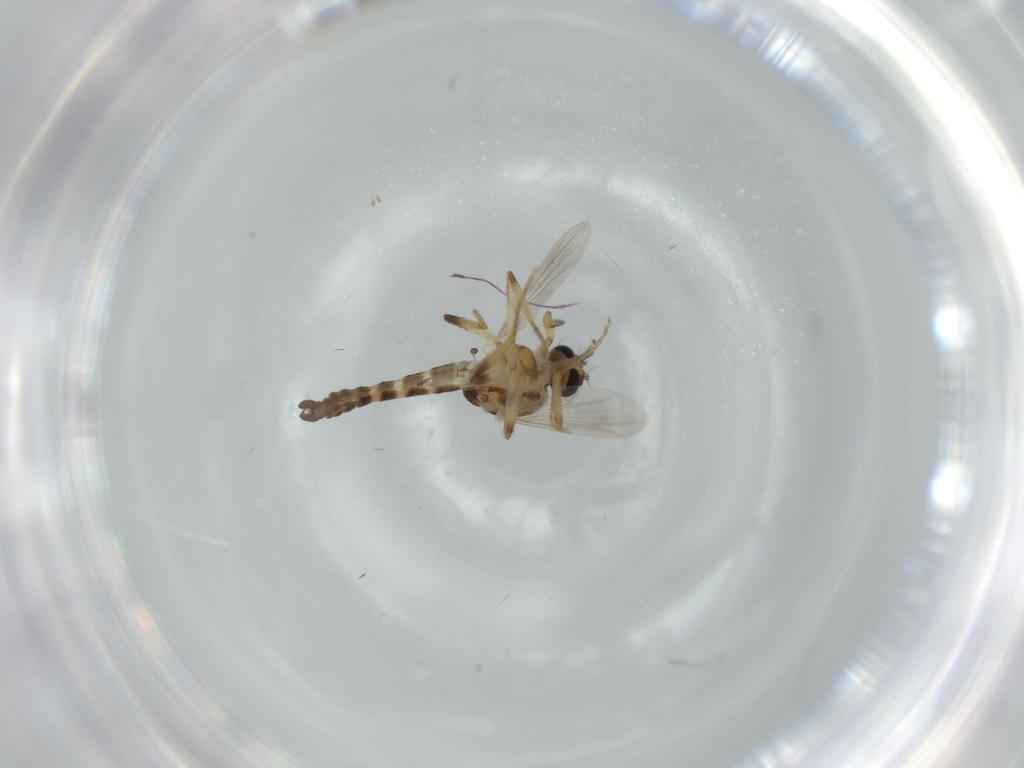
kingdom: Animalia
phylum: Arthropoda
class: Insecta
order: Diptera
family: Ceratopogonidae
